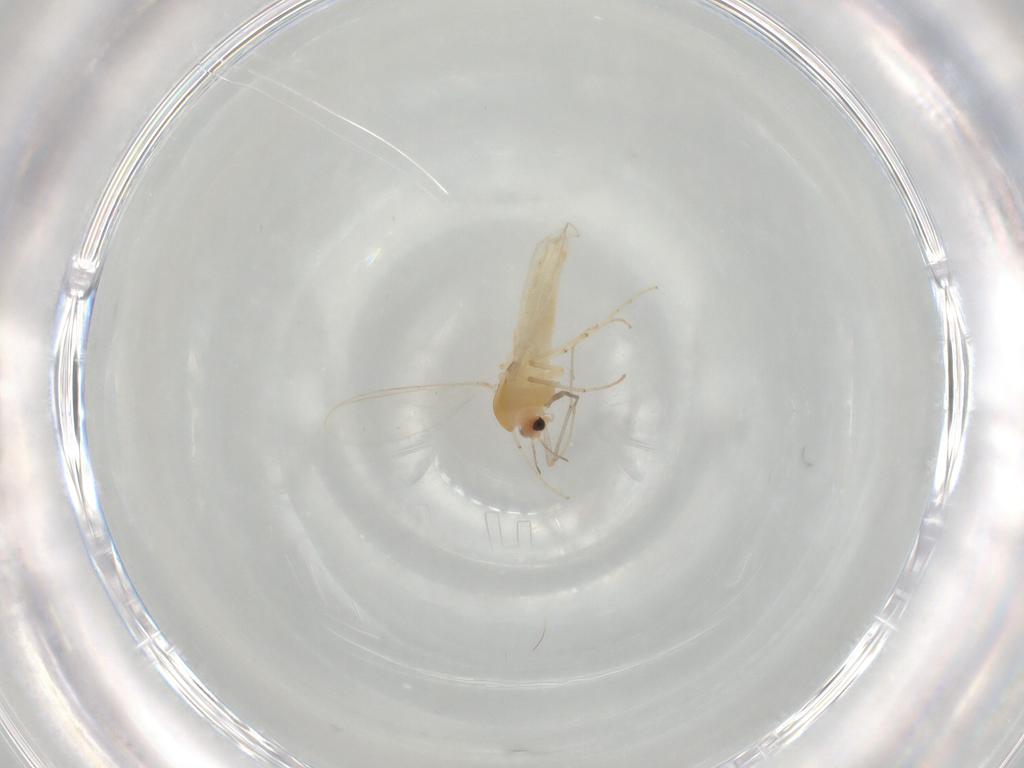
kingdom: Animalia
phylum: Arthropoda
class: Insecta
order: Diptera
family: Chironomidae
